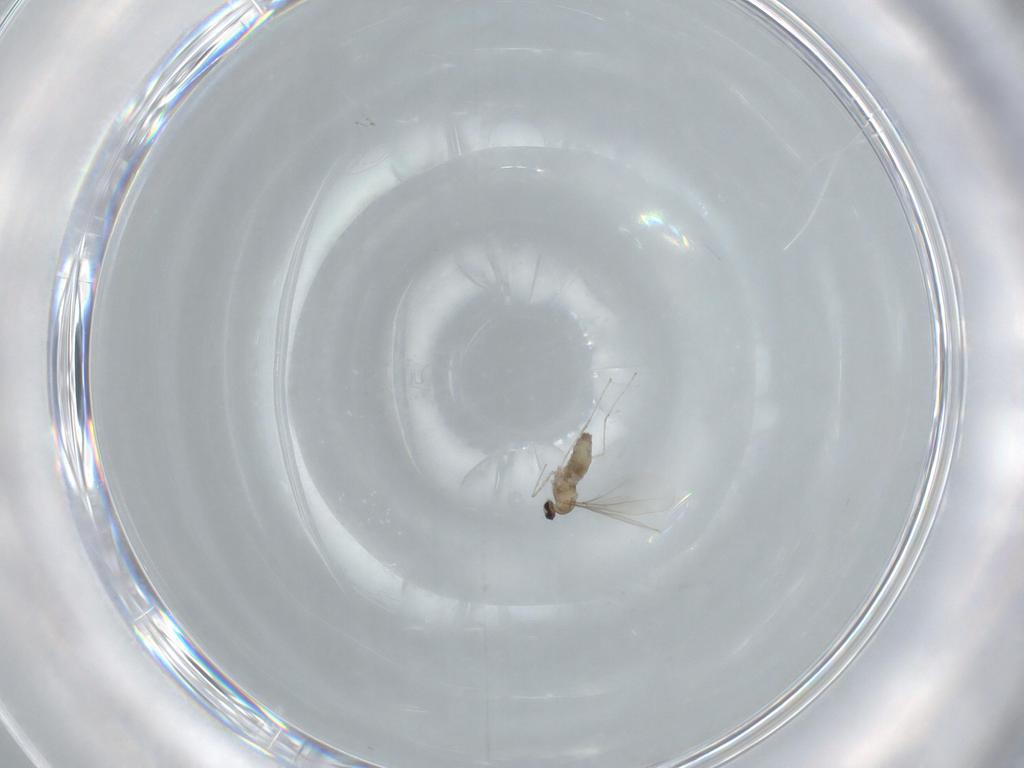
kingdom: Animalia
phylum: Arthropoda
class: Insecta
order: Diptera
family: Cecidomyiidae
